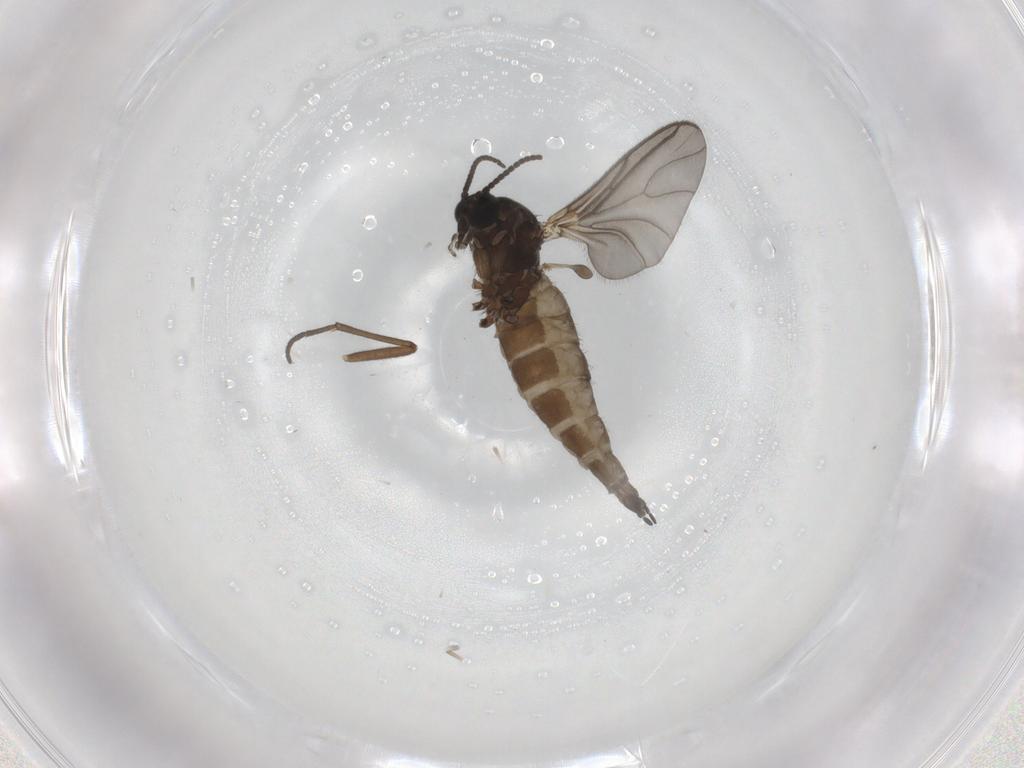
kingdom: Animalia
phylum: Arthropoda
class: Insecta
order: Diptera
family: Sciaridae
